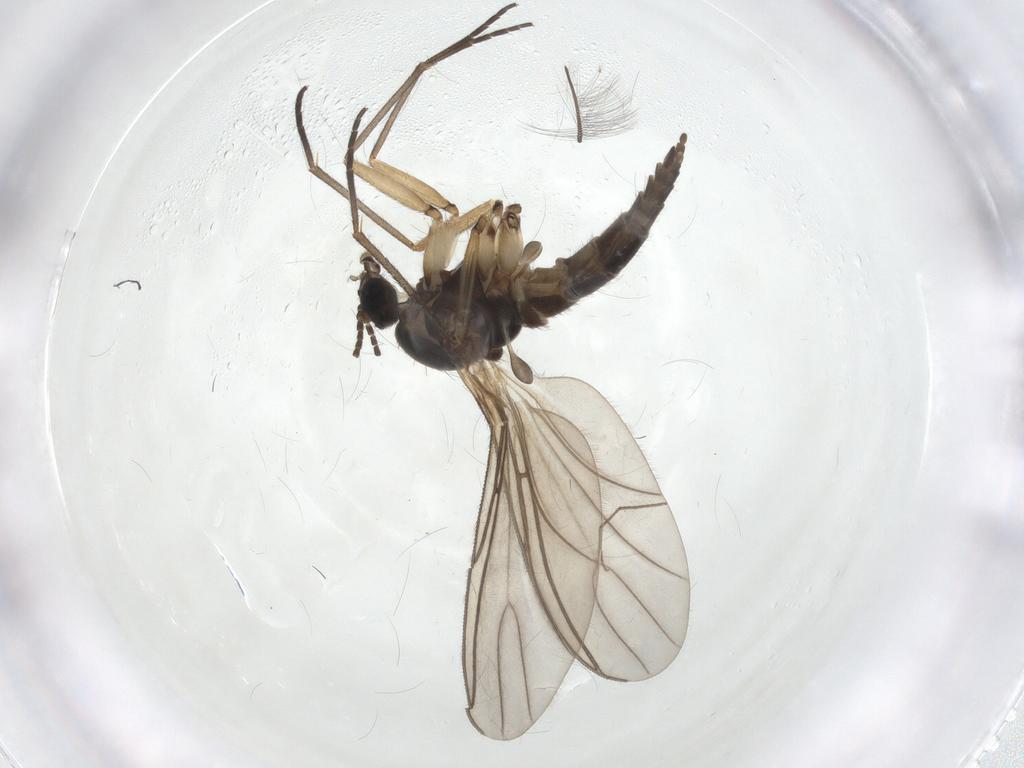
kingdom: Animalia
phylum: Arthropoda
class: Insecta
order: Diptera
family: Sciaridae
